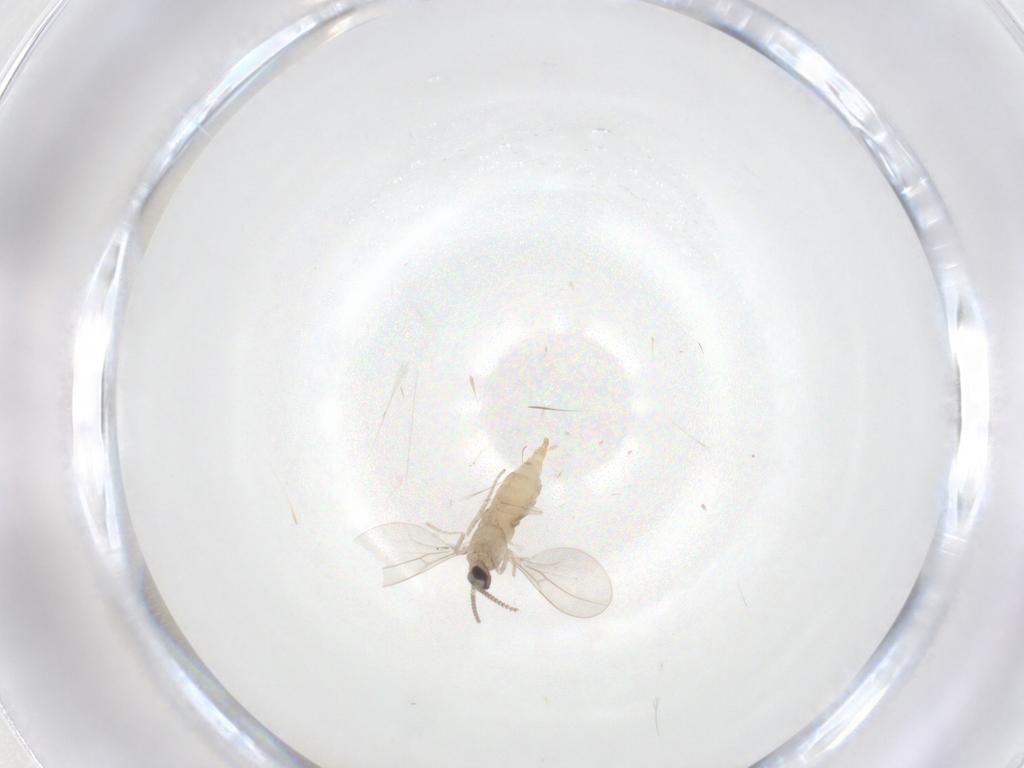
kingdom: Animalia
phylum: Arthropoda
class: Insecta
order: Diptera
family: Cecidomyiidae
